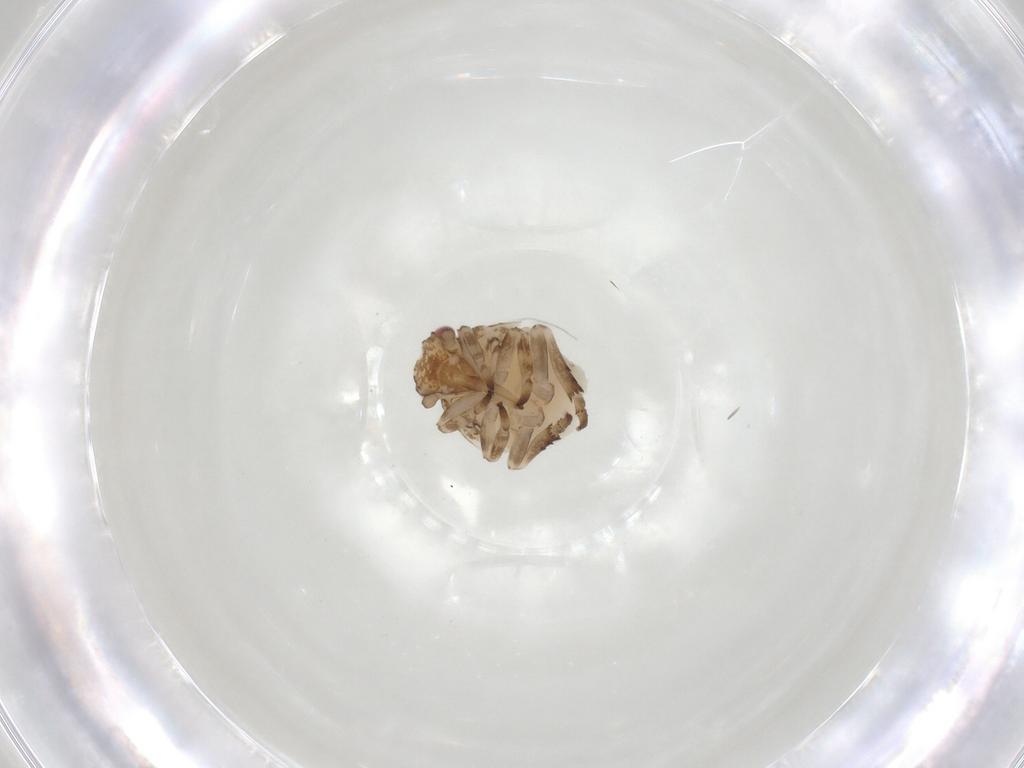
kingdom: Animalia
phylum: Arthropoda
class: Insecta
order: Hemiptera
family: Ricaniidae
